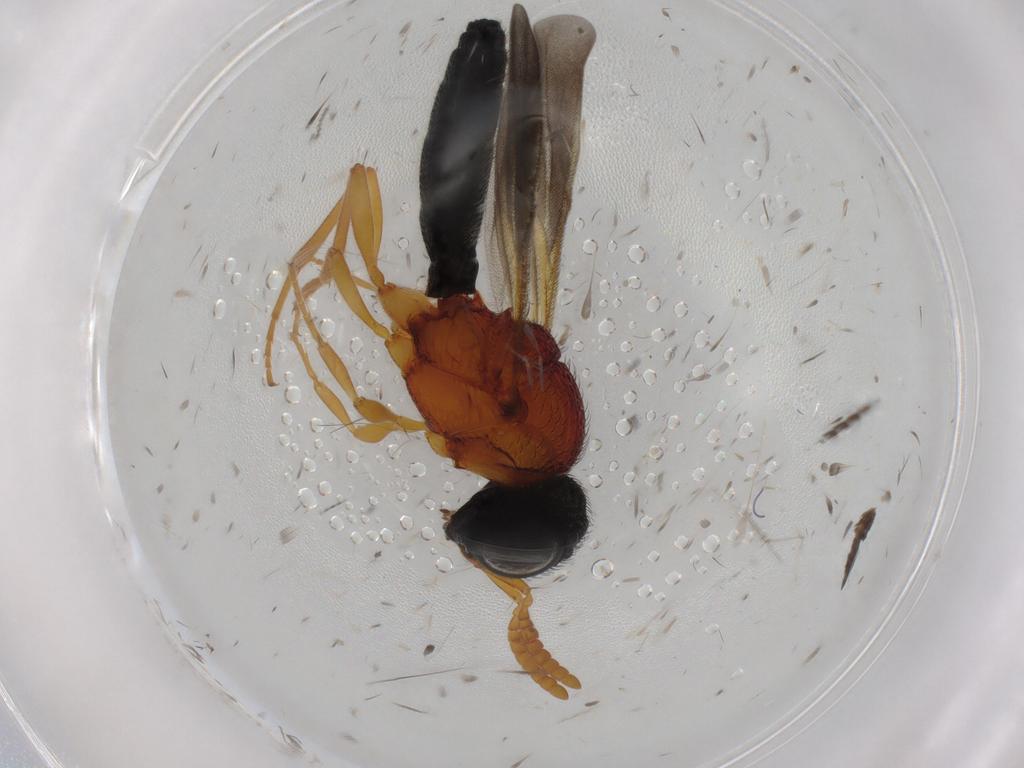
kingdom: Animalia
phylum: Arthropoda
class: Insecta
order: Hymenoptera
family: Scelionidae
